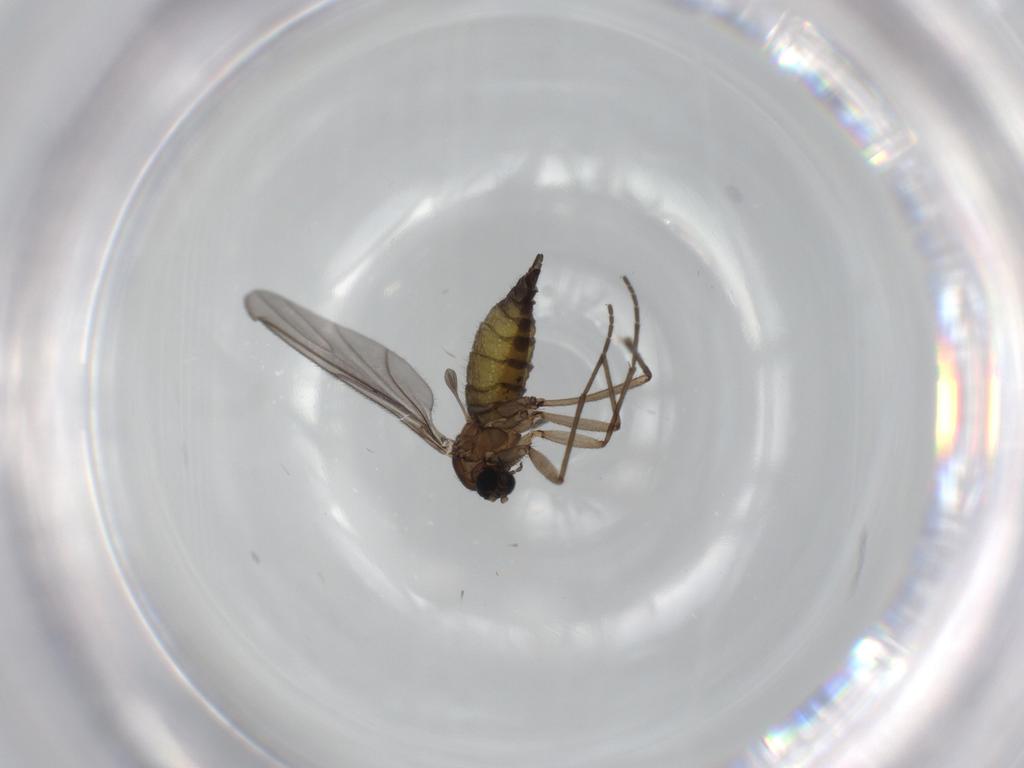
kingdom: Animalia
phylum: Arthropoda
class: Insecta
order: Diptera
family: Sciaridae
